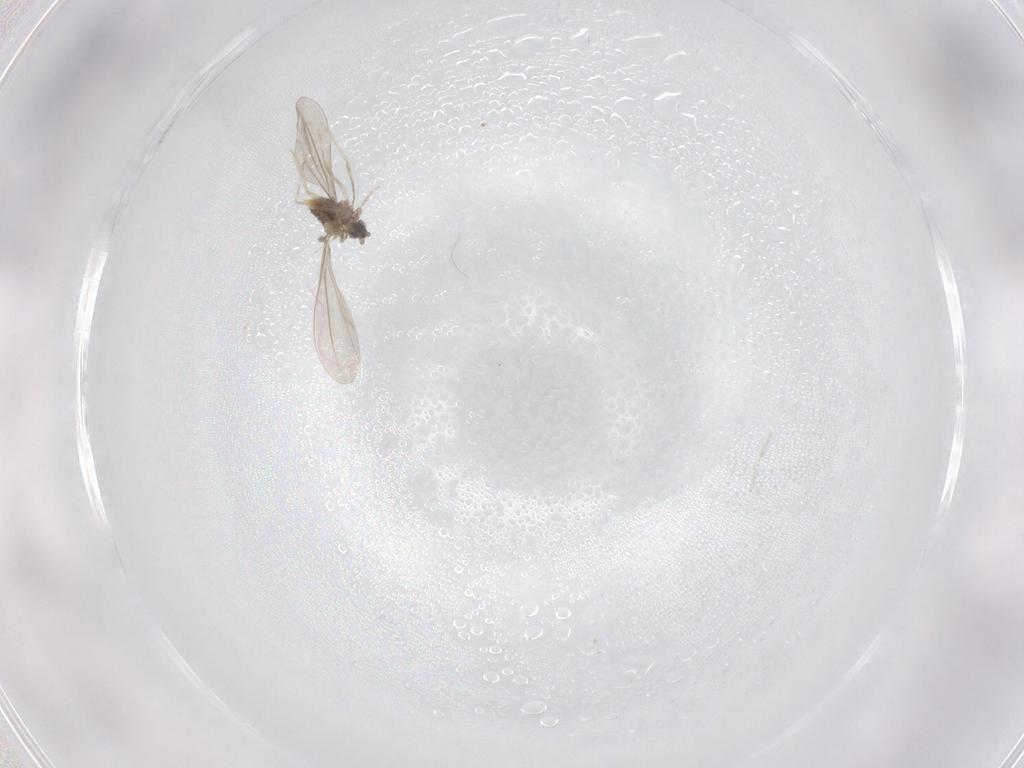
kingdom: Animalia
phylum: Arthropoda
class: Insecta
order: Diptera
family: Cecidomyiidae
